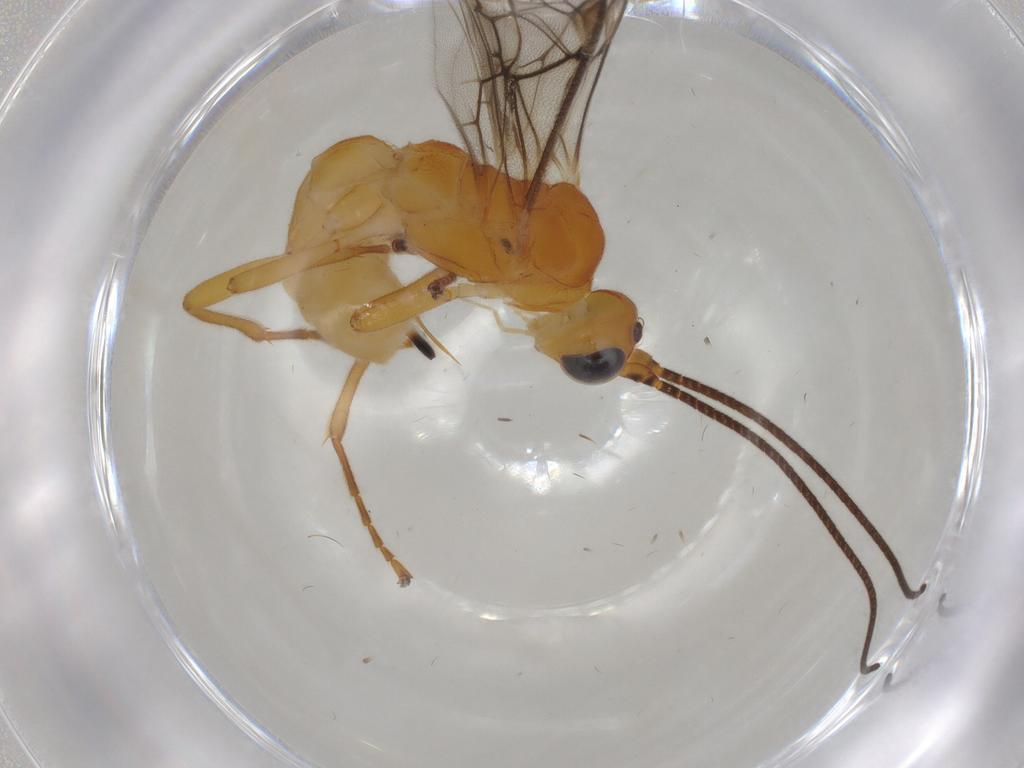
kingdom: Animalia
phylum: Arthropoda
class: Insecta
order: Hymenoptera
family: Braconidae
